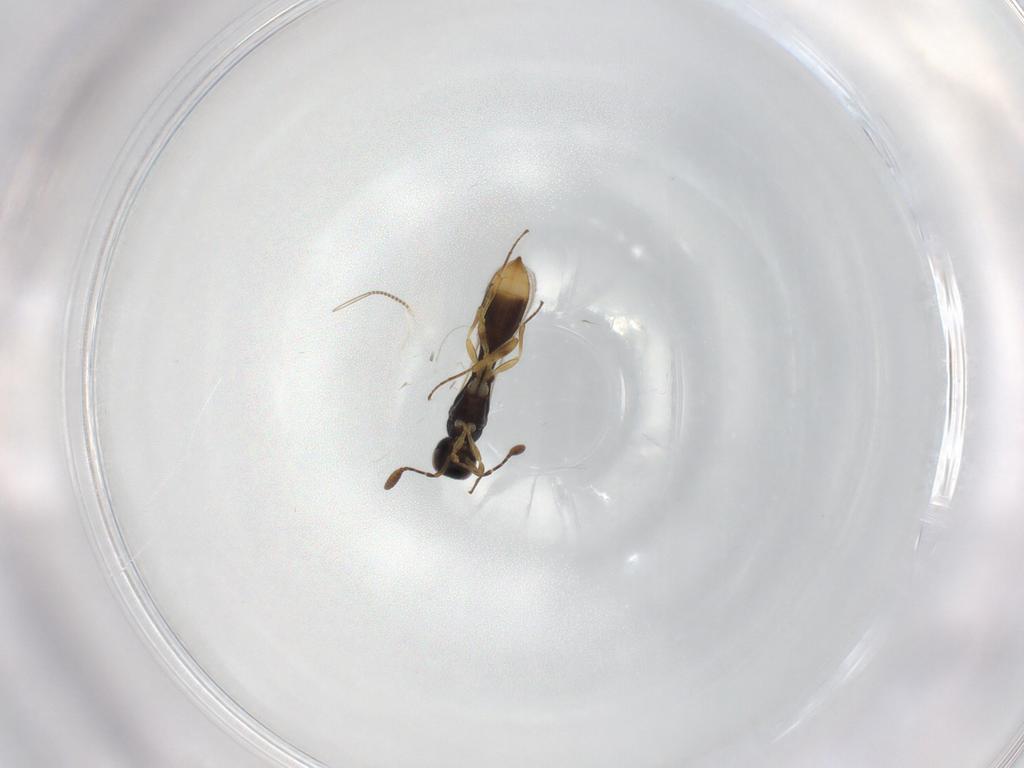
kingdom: Animalia
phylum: Arthropoda
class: Insecta
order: Hymenoptera
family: Scelionidae
